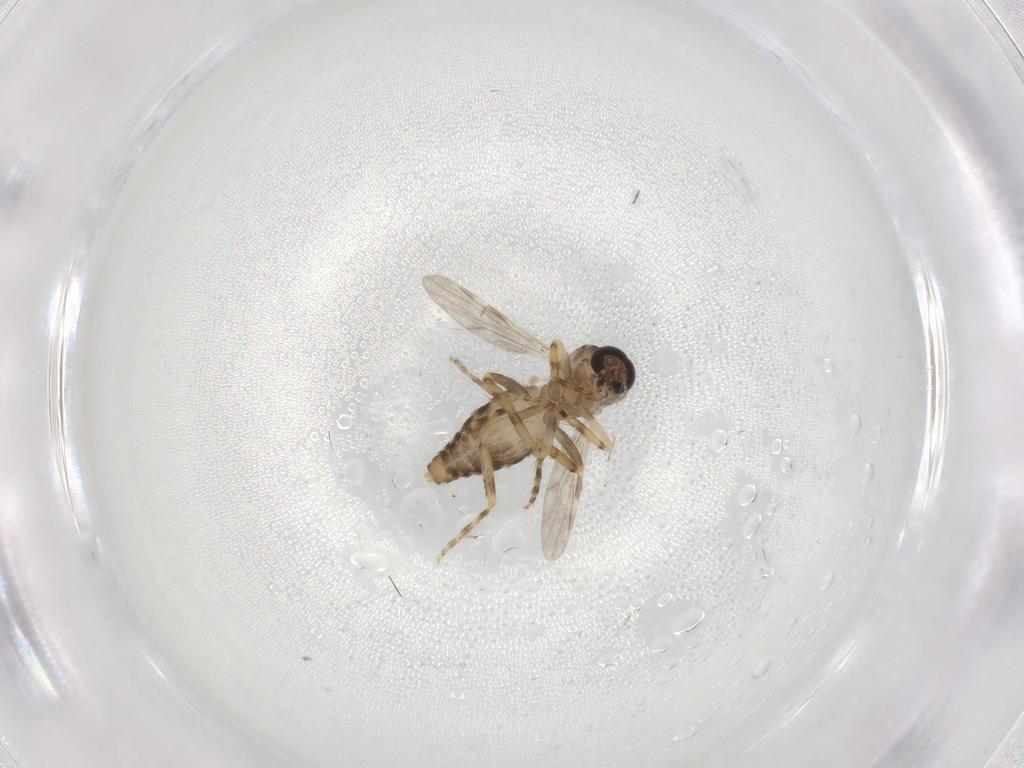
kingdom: Animalia
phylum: Arthropoda
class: Insecta
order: Diptera
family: Ceratopogonidae
